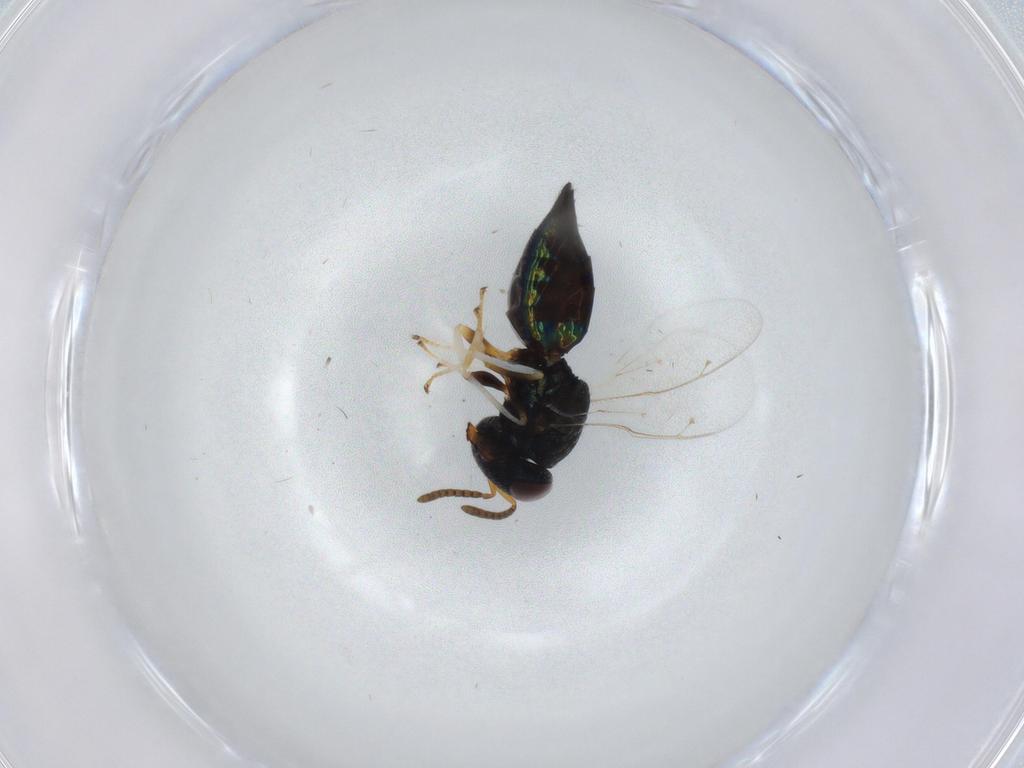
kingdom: Animalia
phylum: Arthropoda
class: Insecta
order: Hymenoptera
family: Pteromalidae
